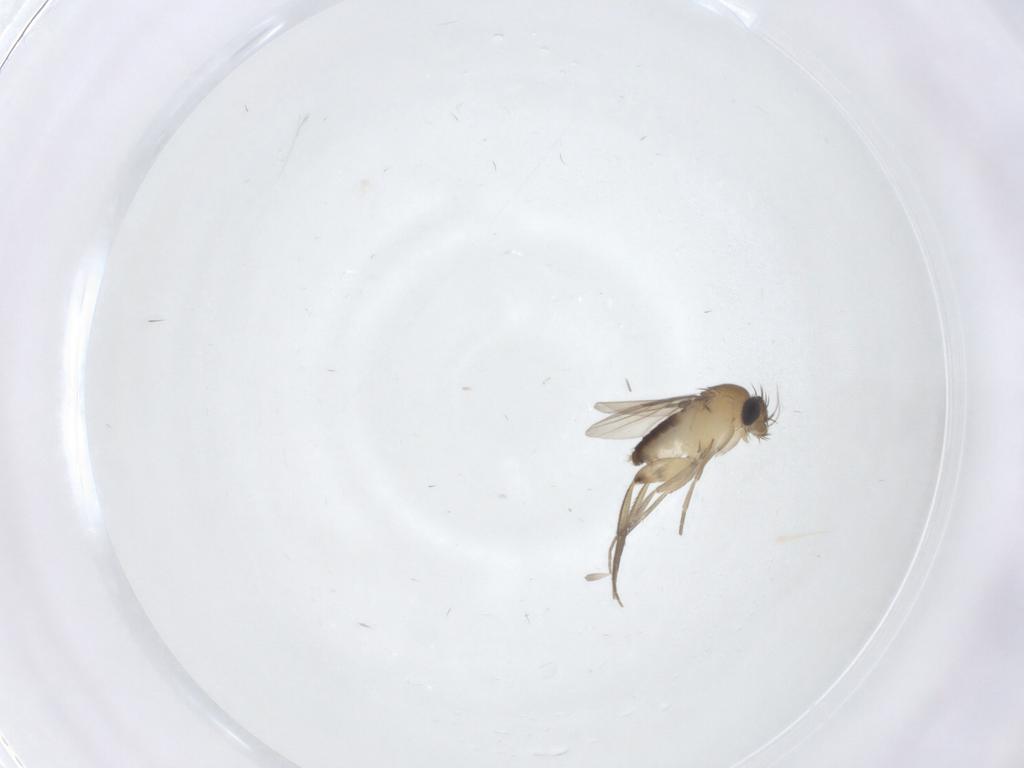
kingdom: Animalia
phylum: Arthropoda
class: Insecta
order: Diptera
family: Phoridae
